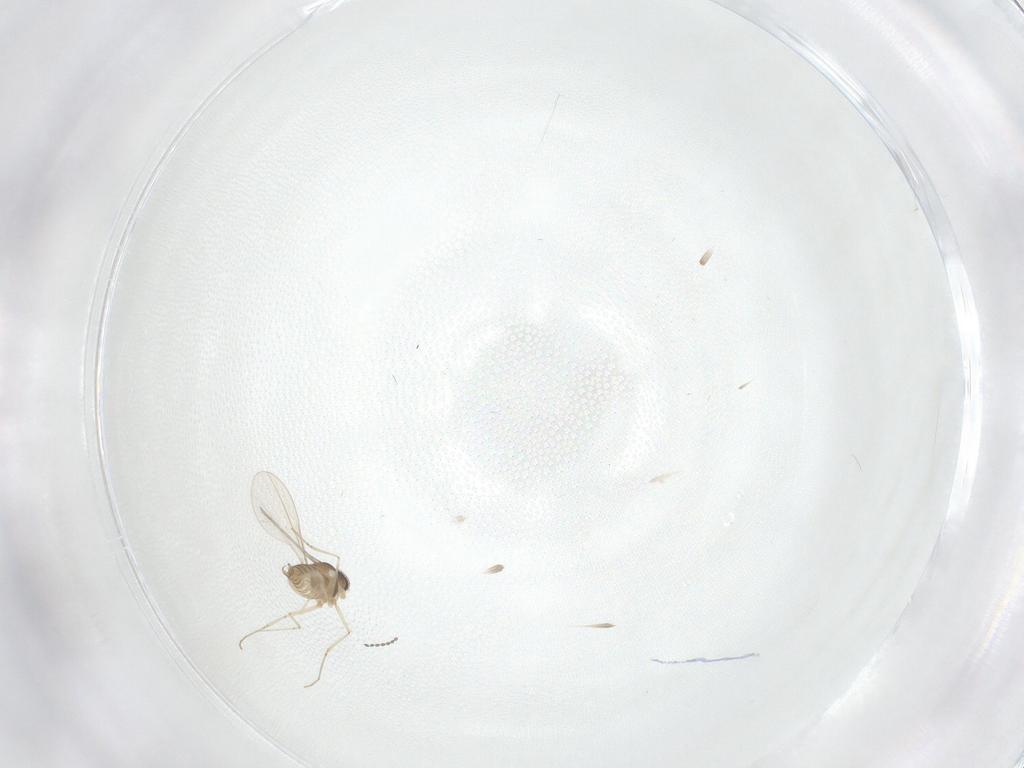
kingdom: Animalia
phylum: Arthropoda
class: Insecta
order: Diptera
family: Cecidomyiidae
